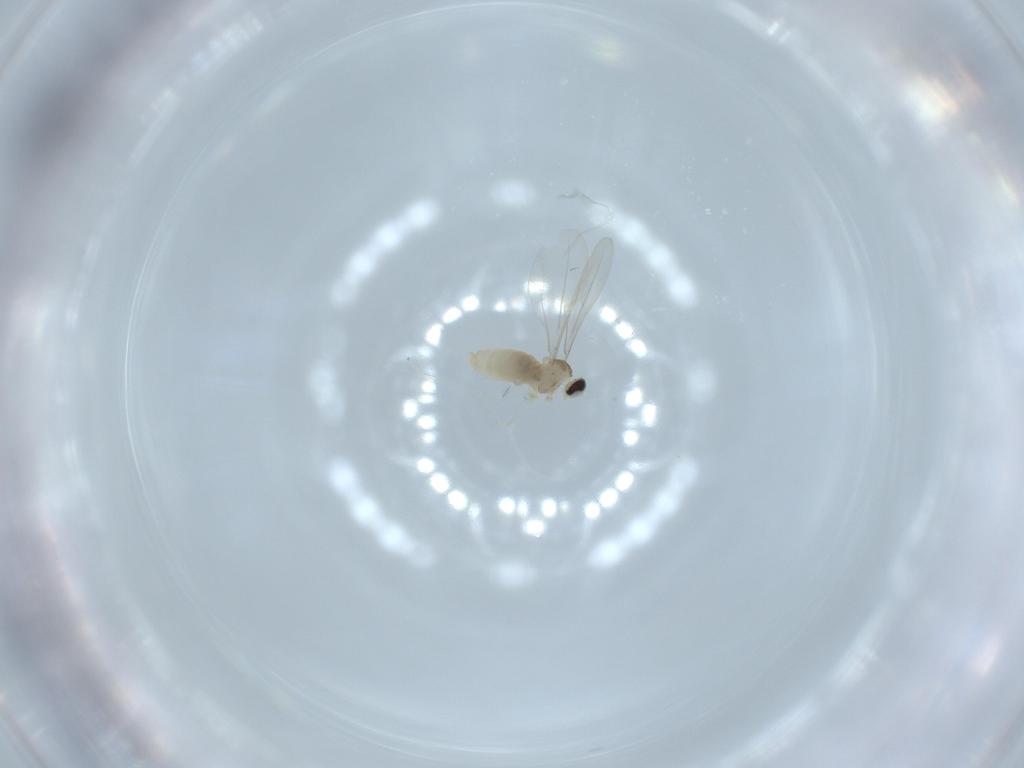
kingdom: Animalia
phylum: Arthropoda
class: Insecta
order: Diptera
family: Cecidomyiidae
